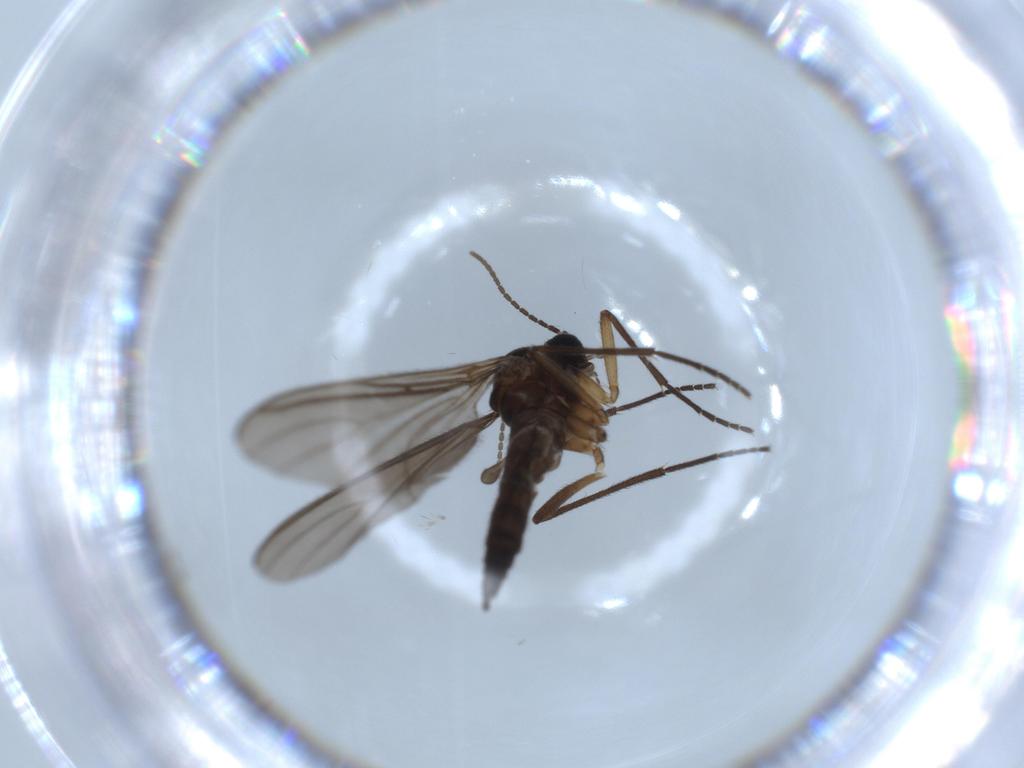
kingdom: Animalia
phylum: Arthropoda
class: Insecta
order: Diptera
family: Sciaridae
